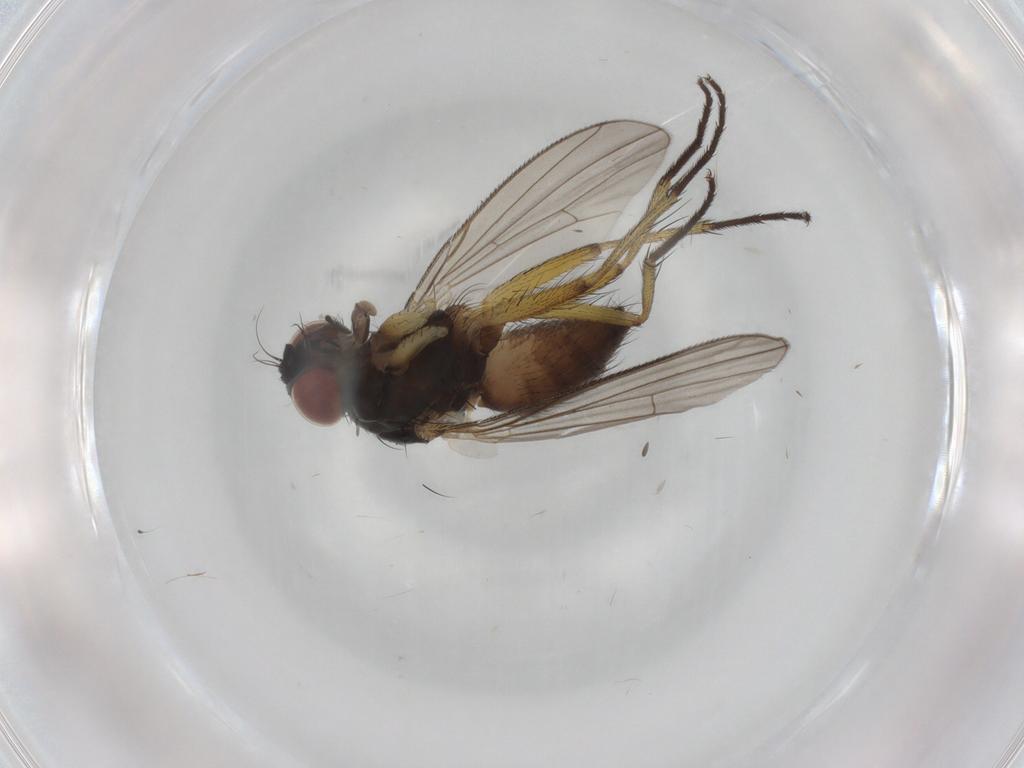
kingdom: Animalia
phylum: Arthropoda
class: Insecta
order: Diptera
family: Muscidae
